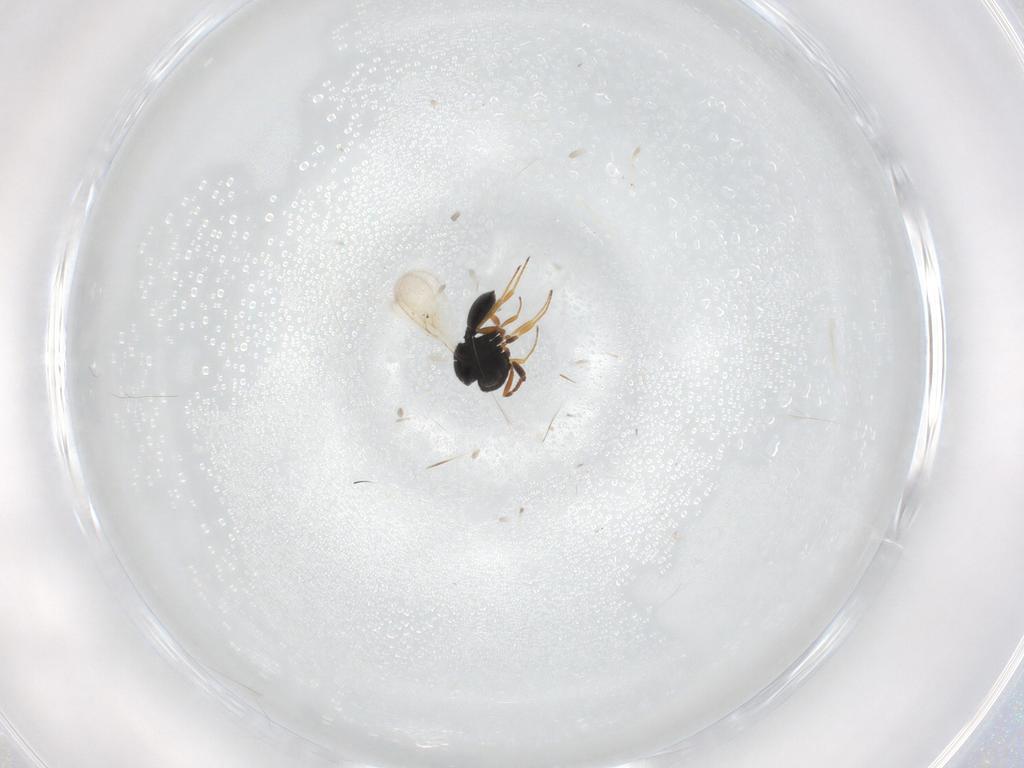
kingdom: Animalia
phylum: Arthropoda
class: Insecta
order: Hymenoptera
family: Scelionidae
